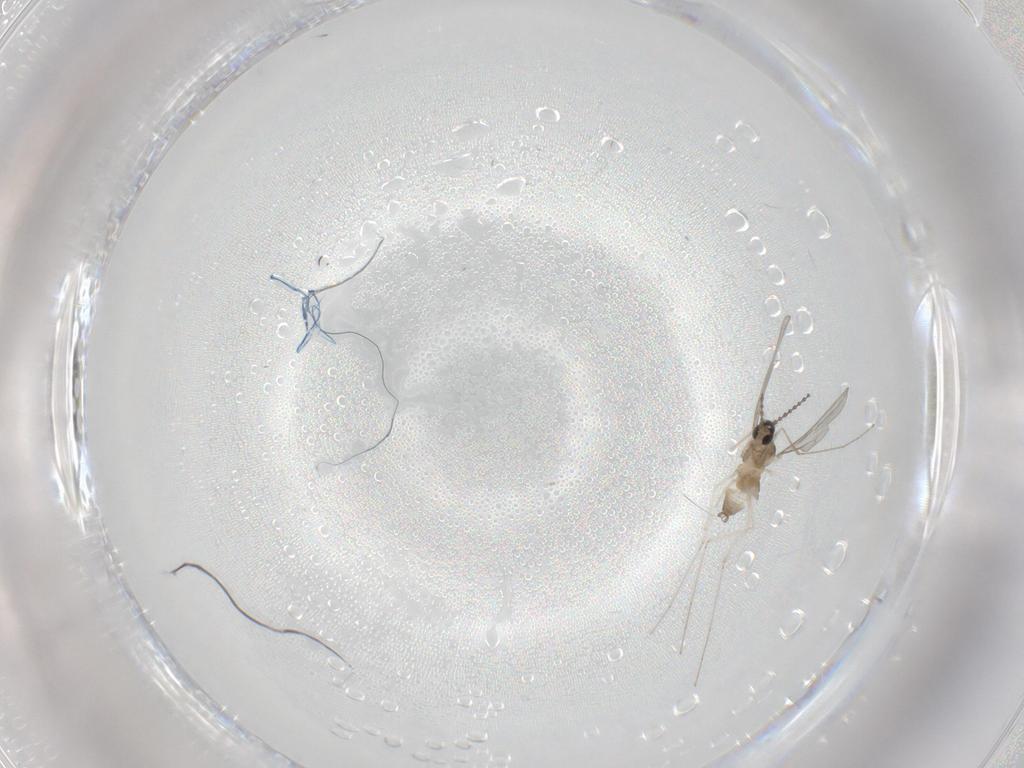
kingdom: Animalia
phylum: Arthropoda
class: Insecta
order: Diptera
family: Cecidomyiidae
